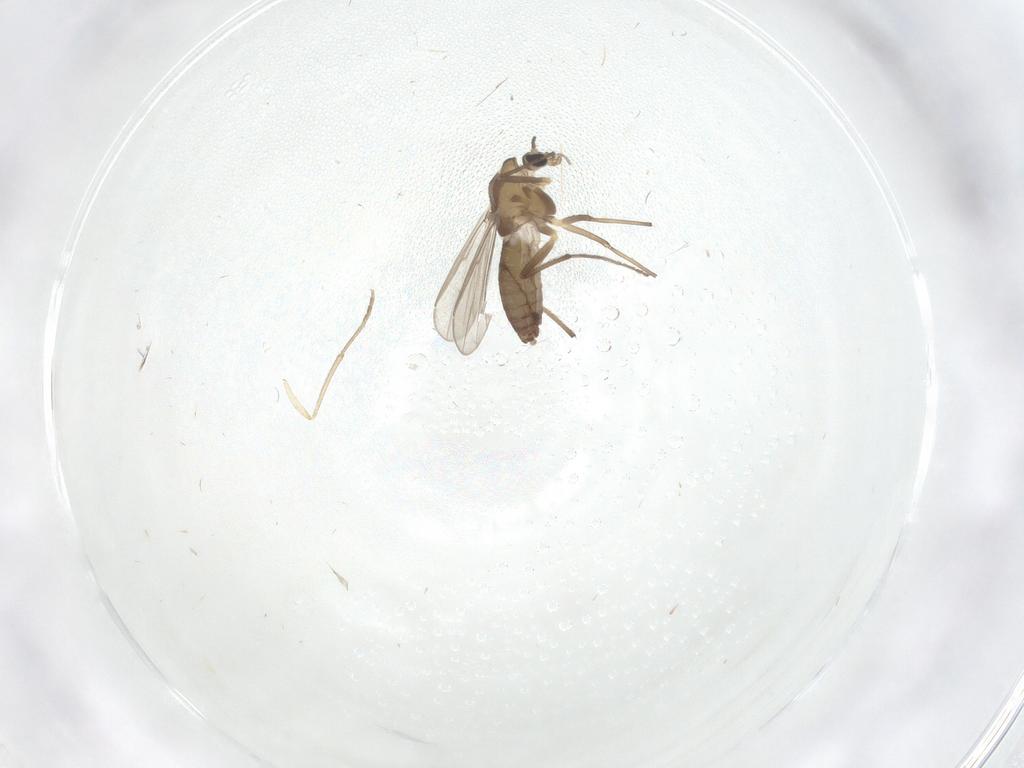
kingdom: Animalia
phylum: Arthropoda
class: Insecta
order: Diptera
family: Chironomidae
